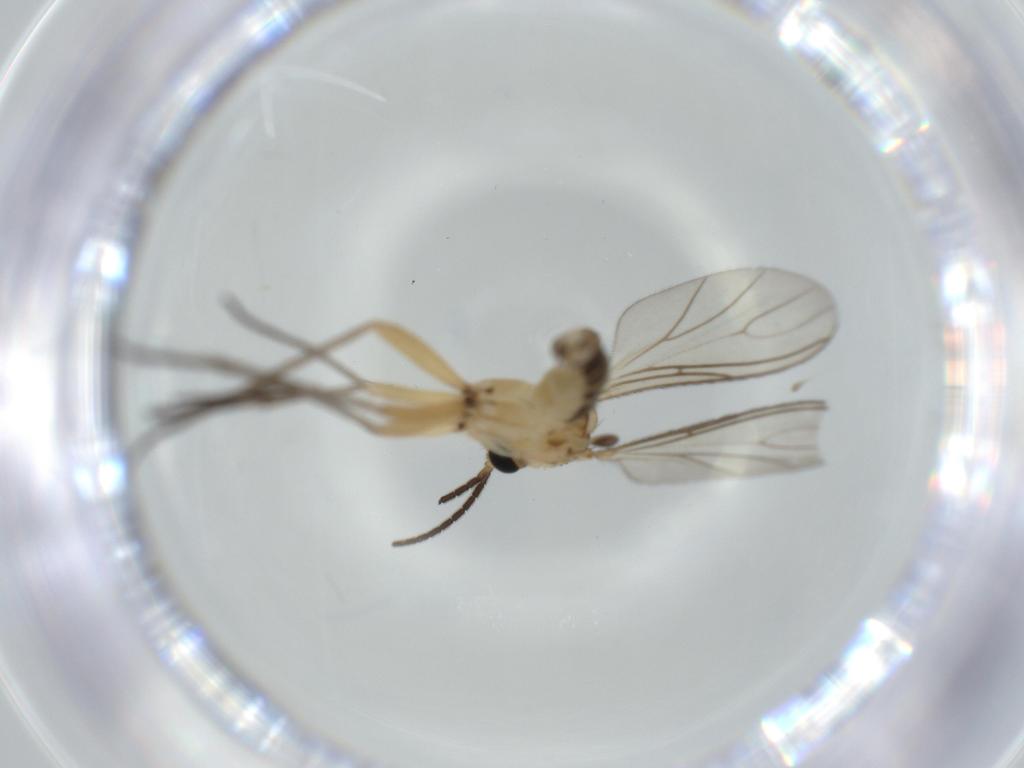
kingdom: Animalia
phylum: Arthropoda
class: Insecta
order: Diptera
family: Sciaridae
